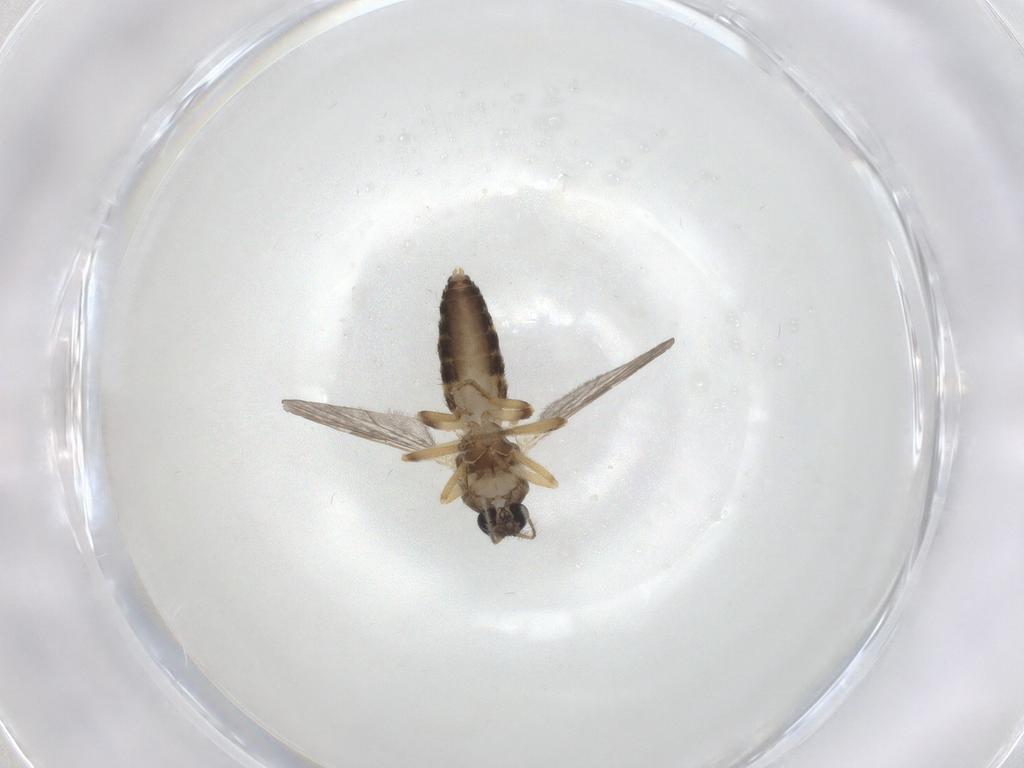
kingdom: Animalia
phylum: Arthropoda
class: Insecta
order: Diptera
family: Ceratopogonidae
